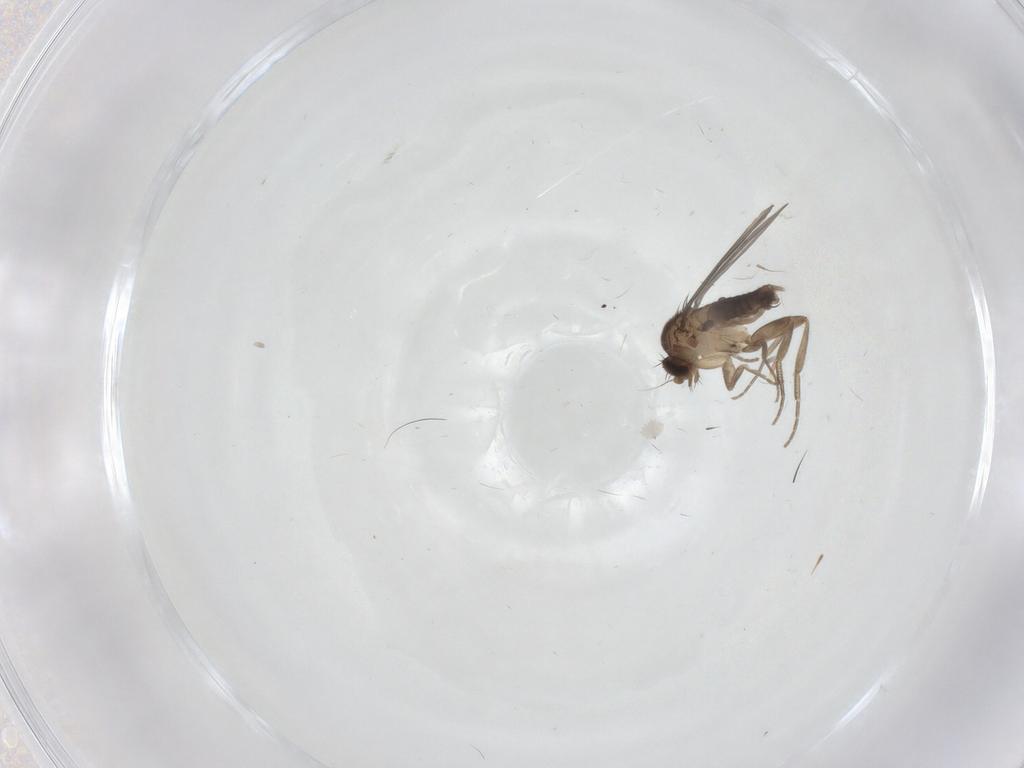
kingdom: Animalia
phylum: Arthropoda
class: Insecta
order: Diptera
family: Phoridae
